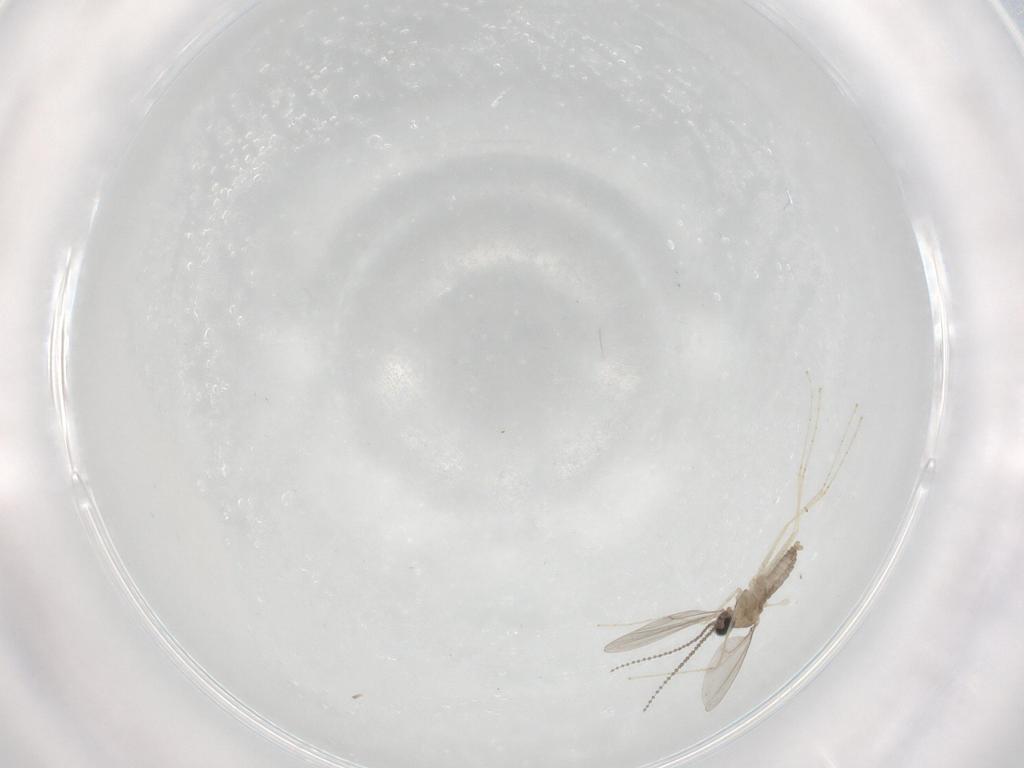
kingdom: Animalia
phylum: Arthropoda
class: Insecta
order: Diptera
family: Cecidomyiidae
